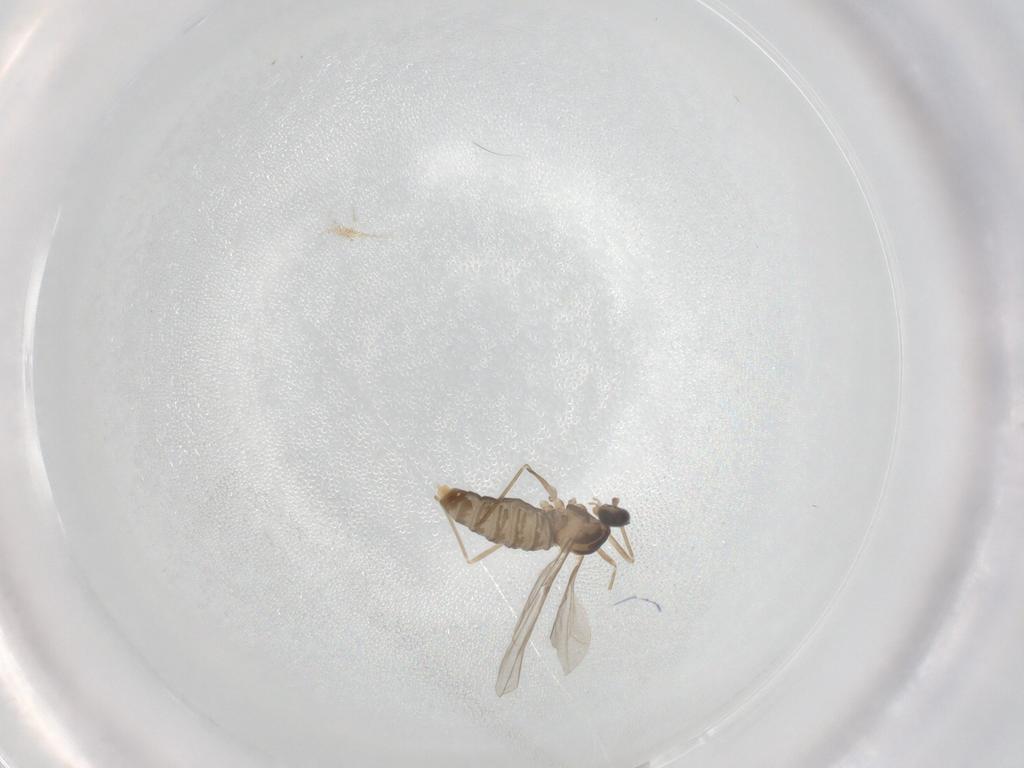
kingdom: Animalia
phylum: Arthropoda
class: Insecta
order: Diptera
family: Cecidomyiidae
